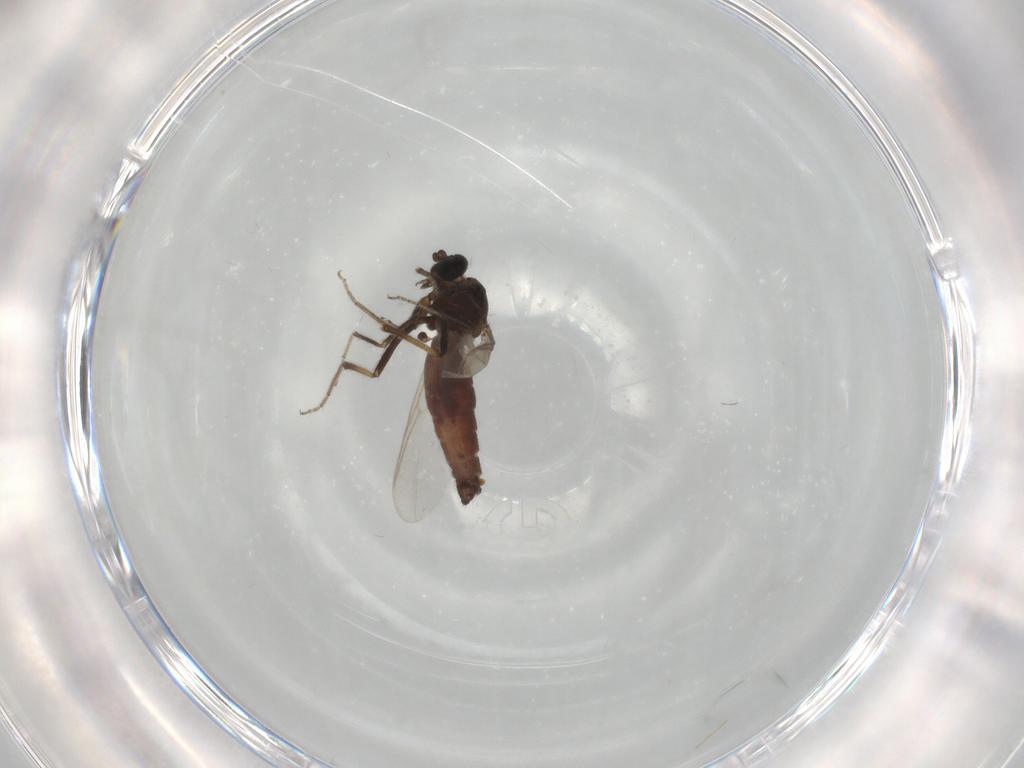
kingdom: Animalia
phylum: Arthropoda
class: Insecta
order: Diptera
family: Ceratopogonidae
